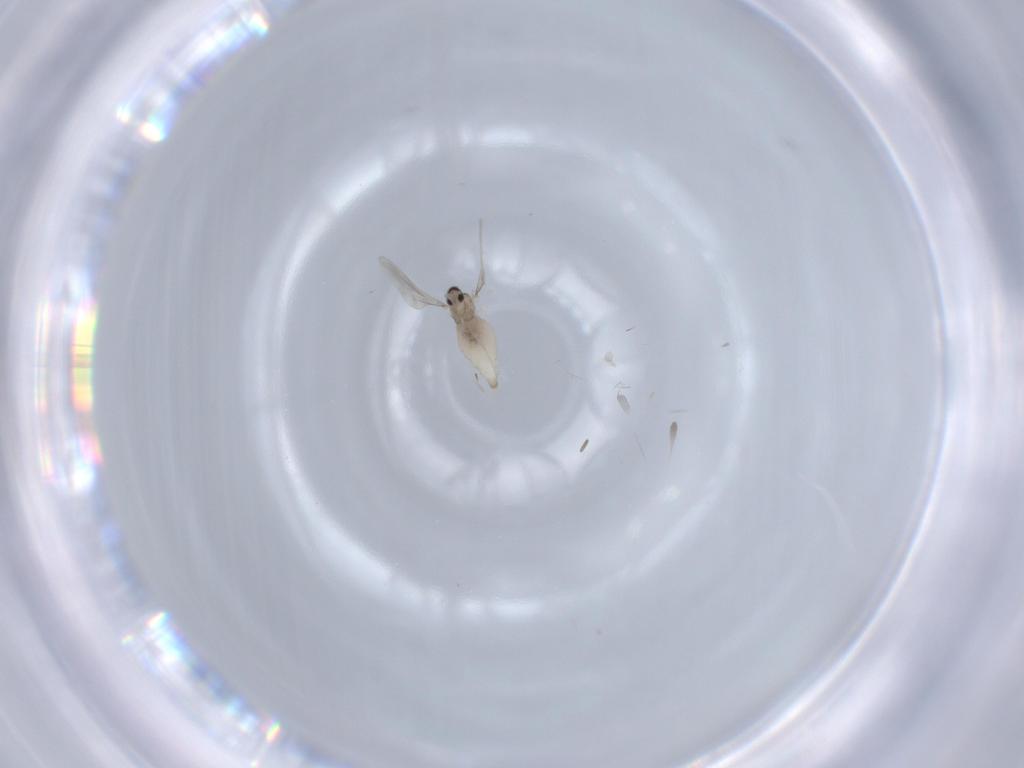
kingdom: Animalia
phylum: Arthropoda
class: Insecta
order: Diptera
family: Cecidomyiidae
